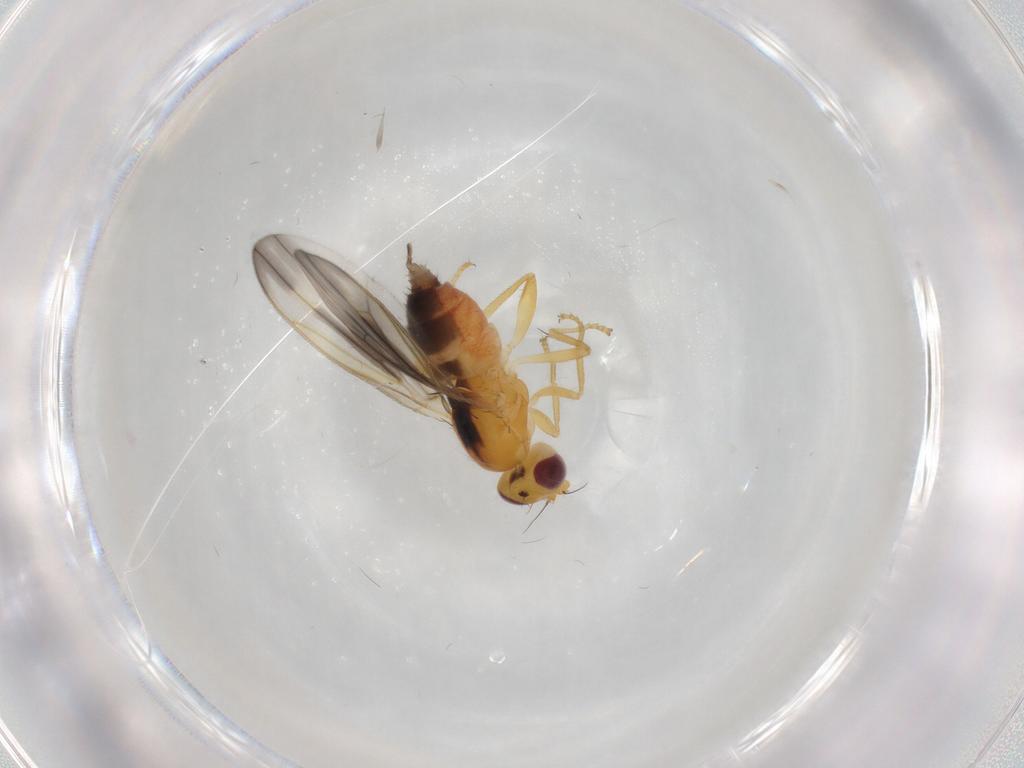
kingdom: Animalia
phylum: Arthropoda
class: Insecta
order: Diptera
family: Neurochaetidae
